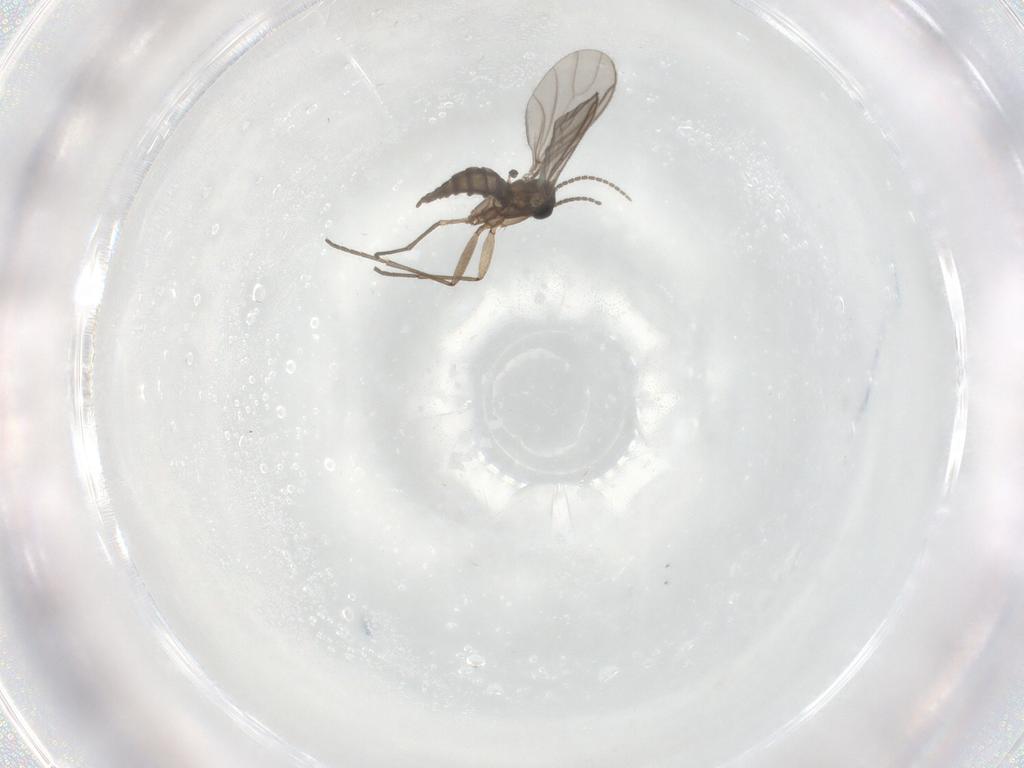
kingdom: Animalia
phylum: Arthropoda
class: Insecta
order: Diptera
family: Sciaridae
